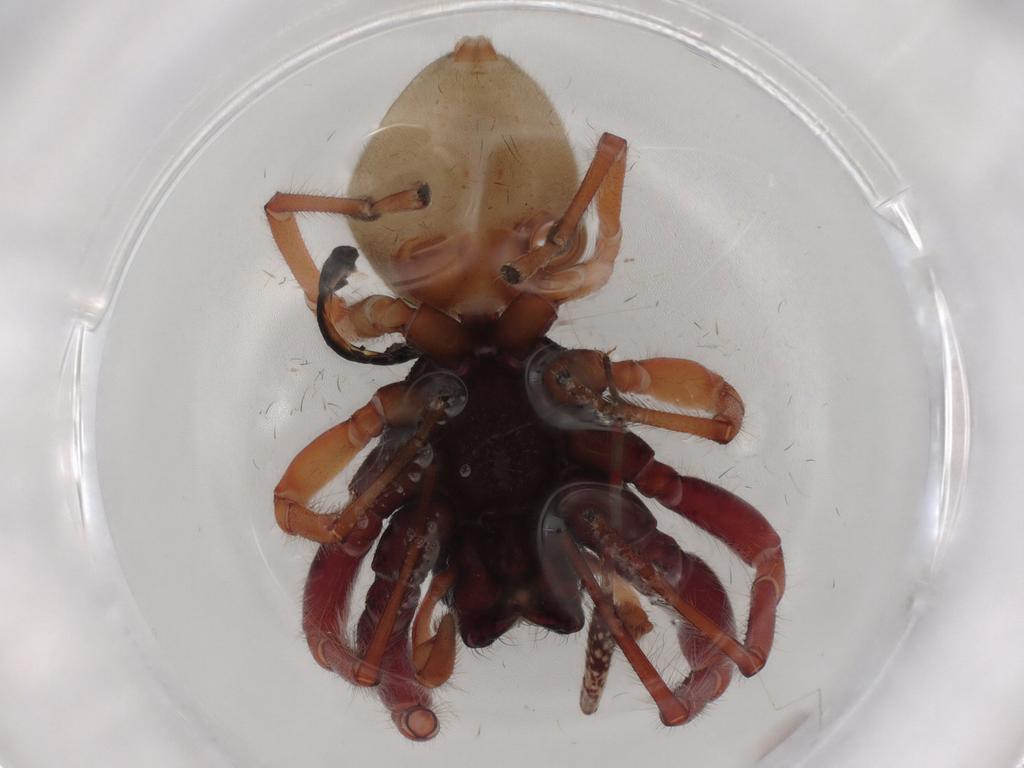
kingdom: Animalia
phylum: Arthropoda
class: Arachnida
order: Araneae
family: Trachelidae
